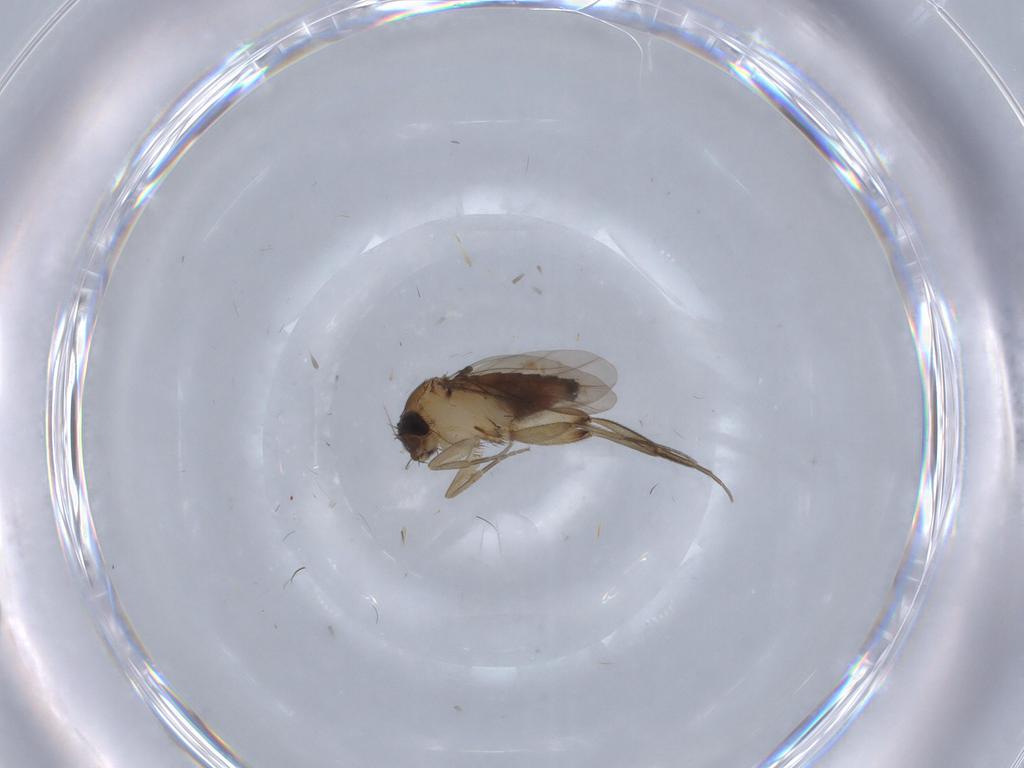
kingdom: Animalia
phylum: Arthropoda
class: Insecta
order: Diptera
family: Phoridae
